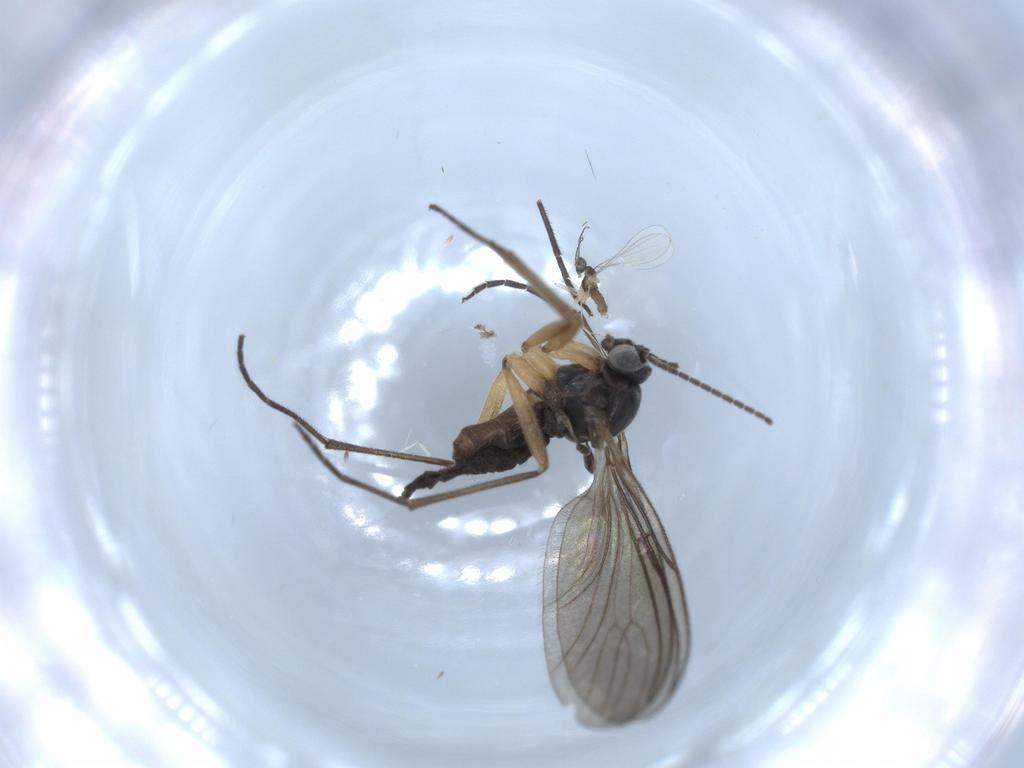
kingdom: Animalia
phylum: Arthropoda
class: Insecta
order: Diptera
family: Sciaridae
